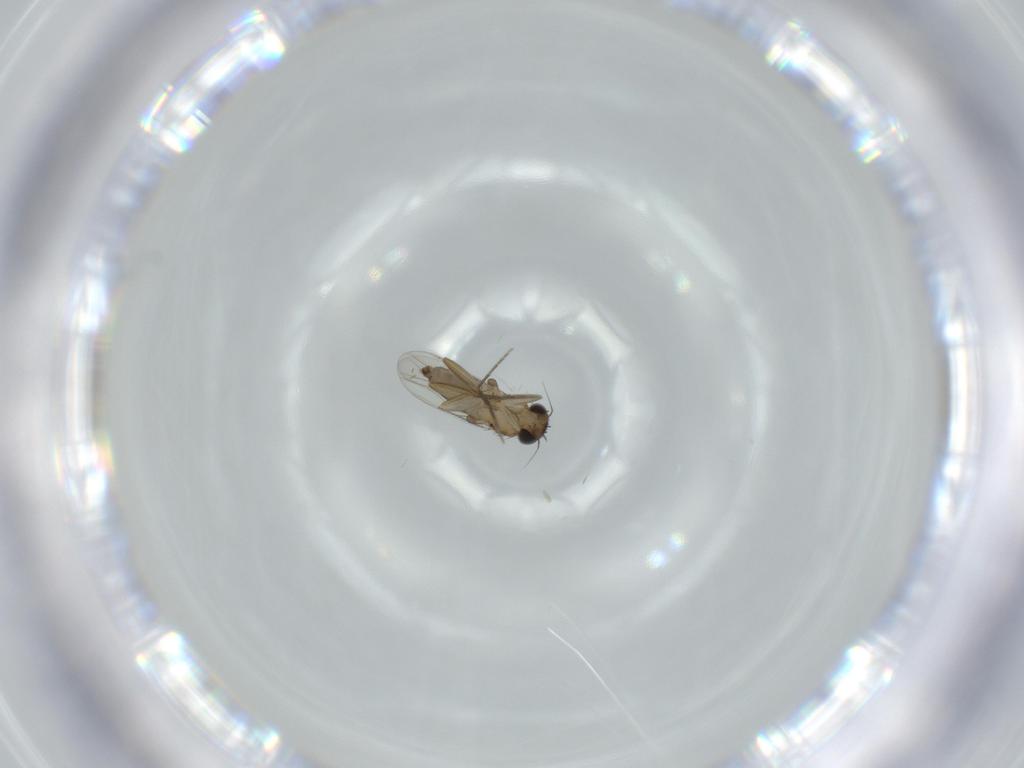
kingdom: Animalia
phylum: Arthropoda
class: Insecta
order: Diptera
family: Phoridae
